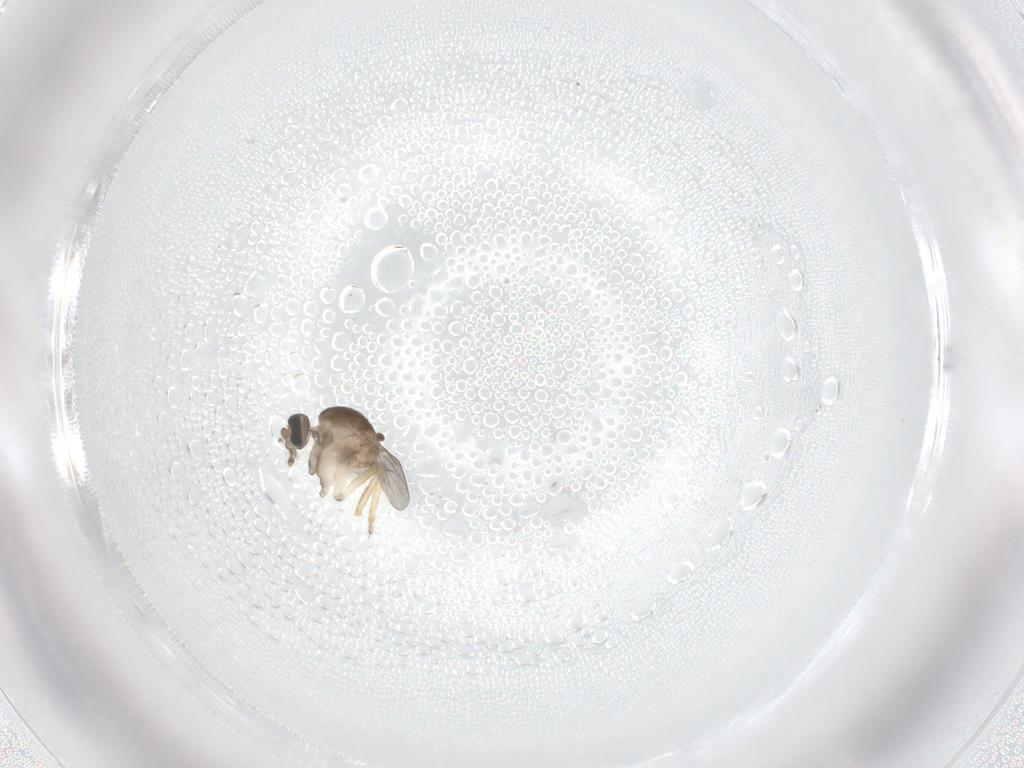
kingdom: Animalia
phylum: Arthropoda
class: Insecta
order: Diptera
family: Ceratopogonidae
